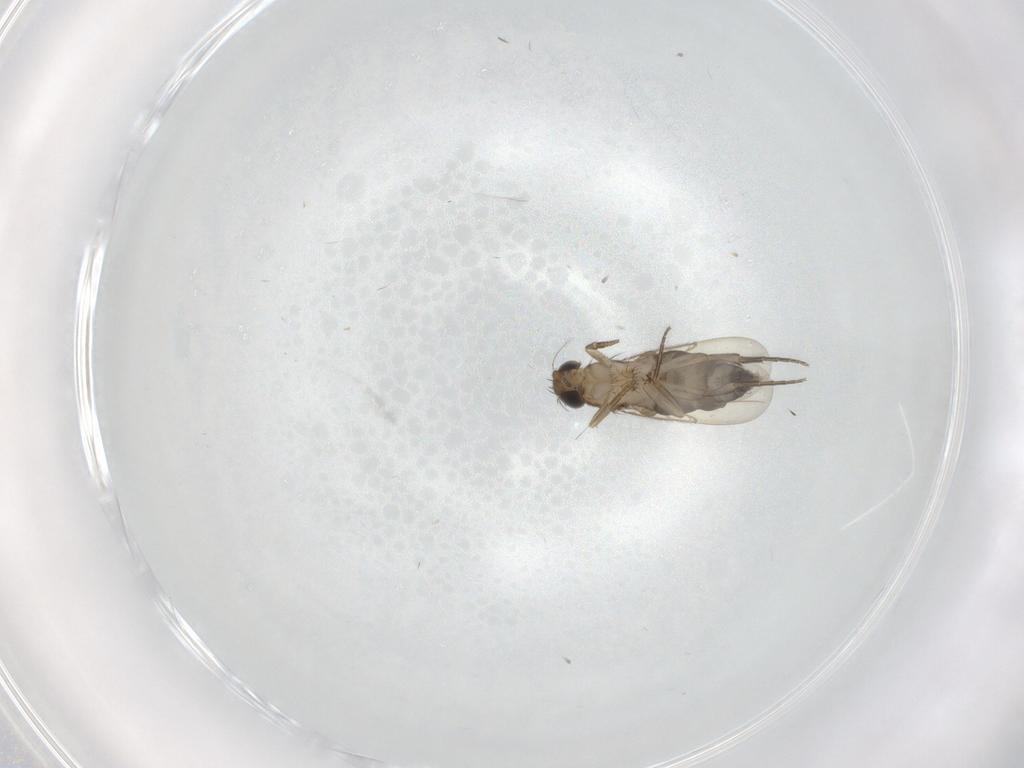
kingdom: Animalia
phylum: Arthropoda
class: Insecta
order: Diptera
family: Phoridae
